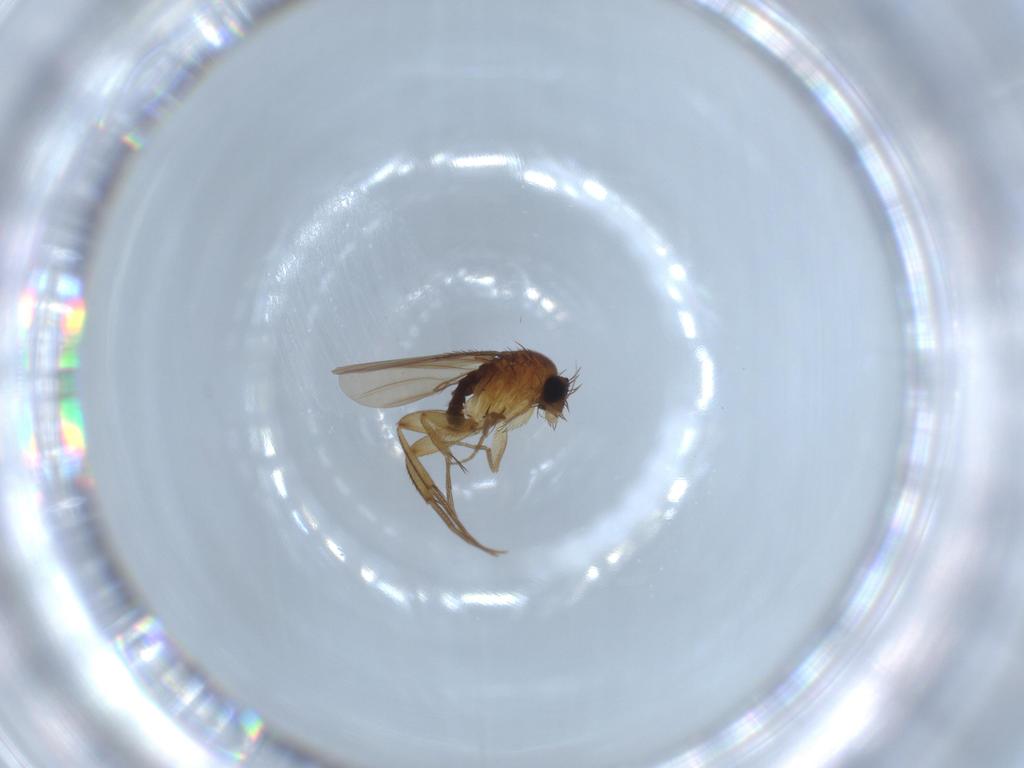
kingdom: Animalia
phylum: Arthropoda
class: Insecta
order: Diptera
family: Phoridae
